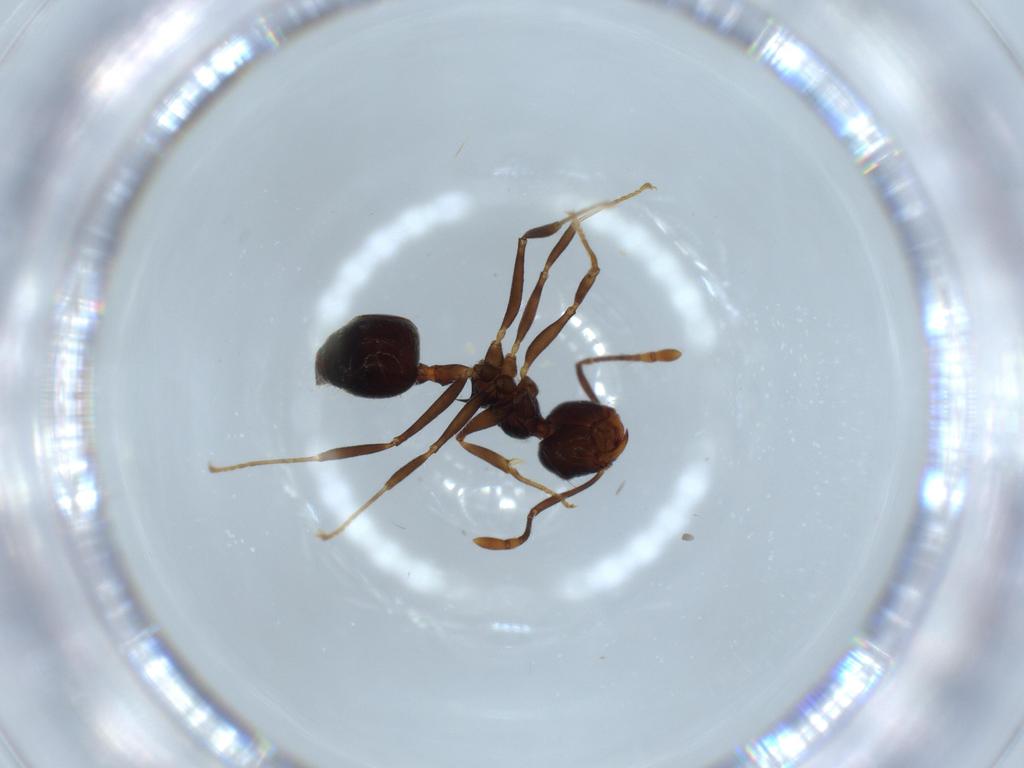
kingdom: Animalia
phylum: Arthropoda
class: Insecta
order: Hymenoptera
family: Formicidae
